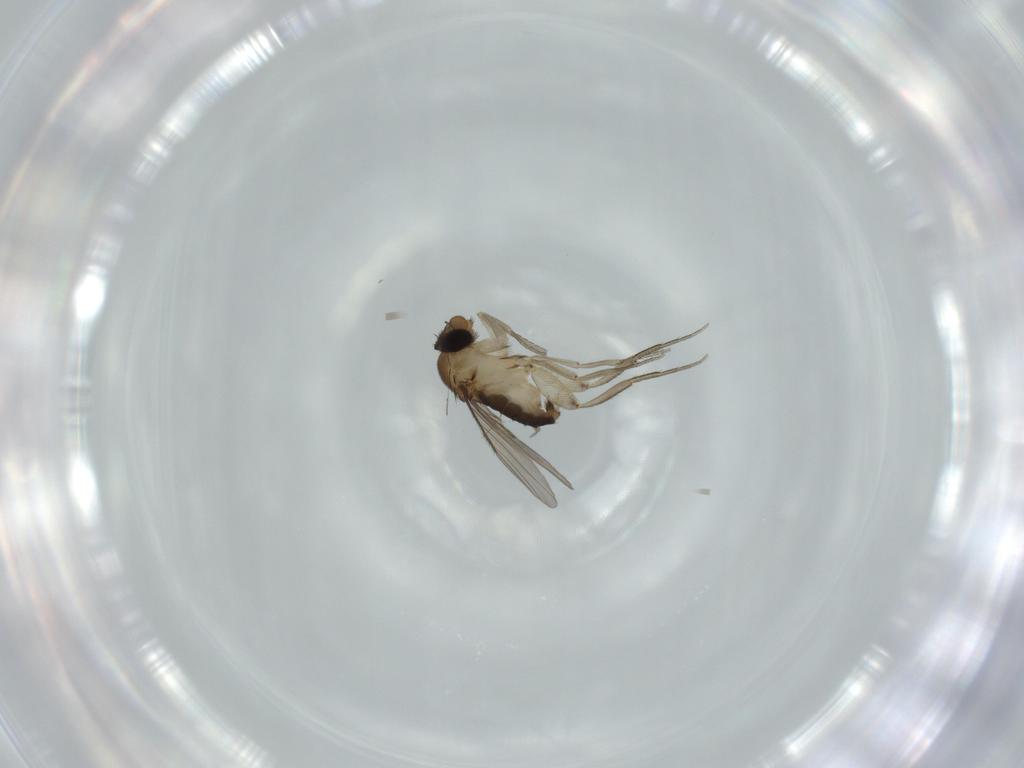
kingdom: Animalia
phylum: Arthropoda
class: Insecta
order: Diptera
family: Phoridae
